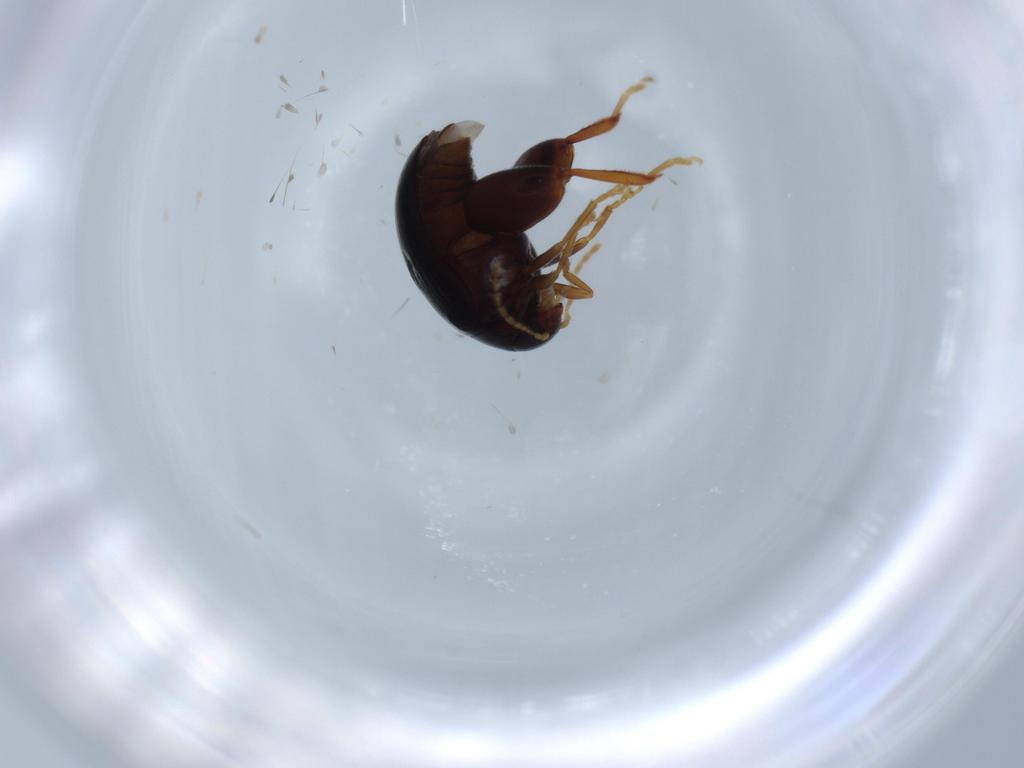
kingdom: Animalia
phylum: Arthropoda
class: Insecta
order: Coleoptera
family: Chrysomelidae
